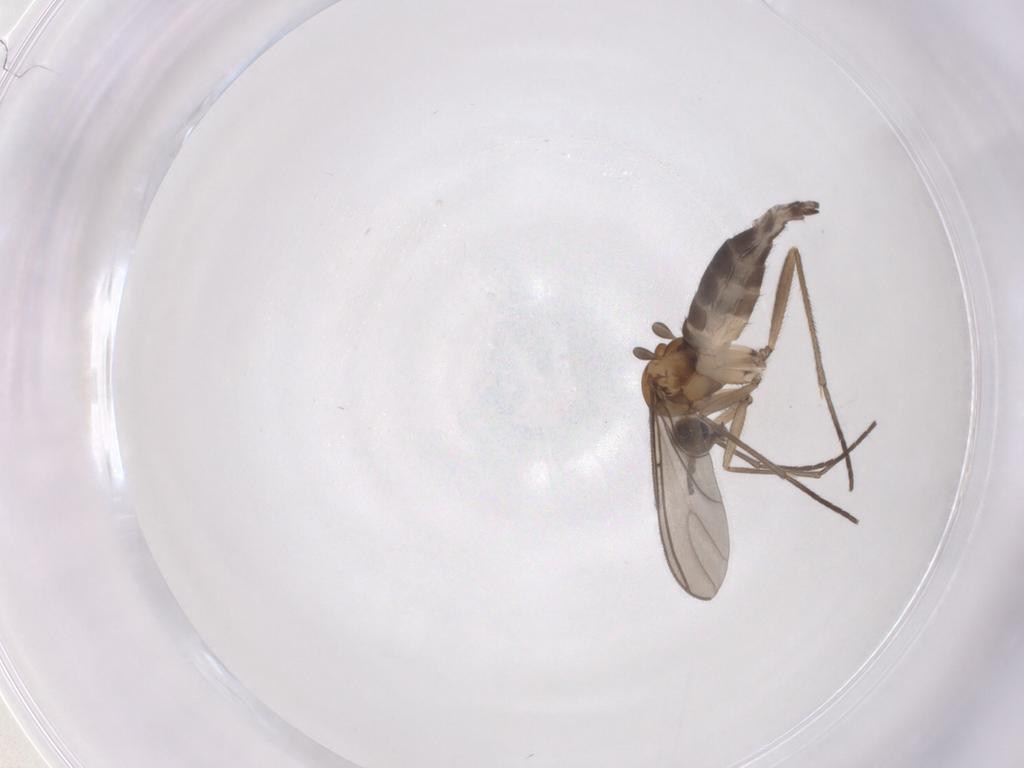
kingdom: Animalia
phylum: Arthropoda
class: Insecta
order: Diptera
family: Sciaridae
